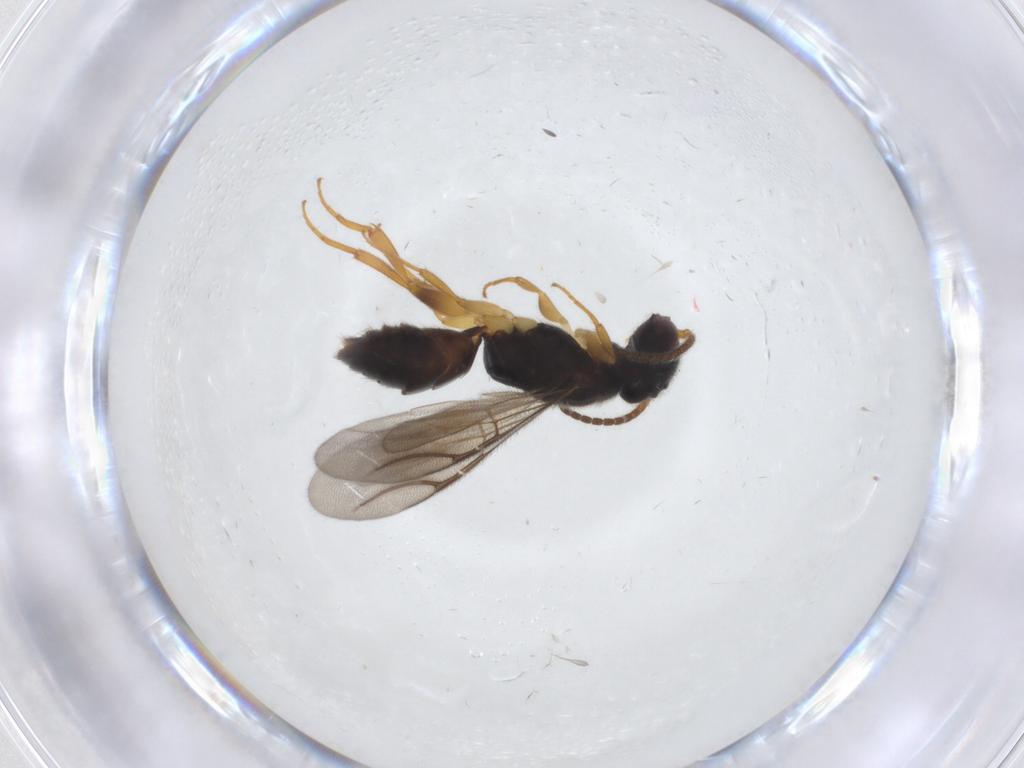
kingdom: Animalia
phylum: Arthropoda
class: Insecta
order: Hymenoptera
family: Bethylidae
